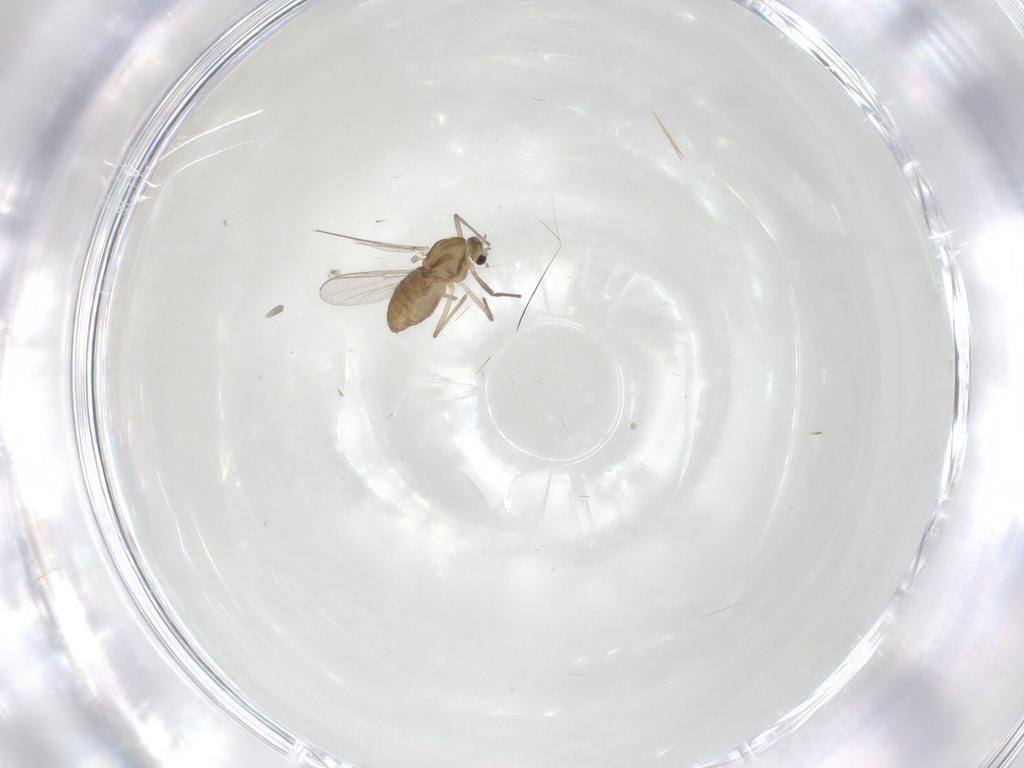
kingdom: Animalia
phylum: Arthropoda
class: Insecta
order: Diptera
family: Chironomidae
